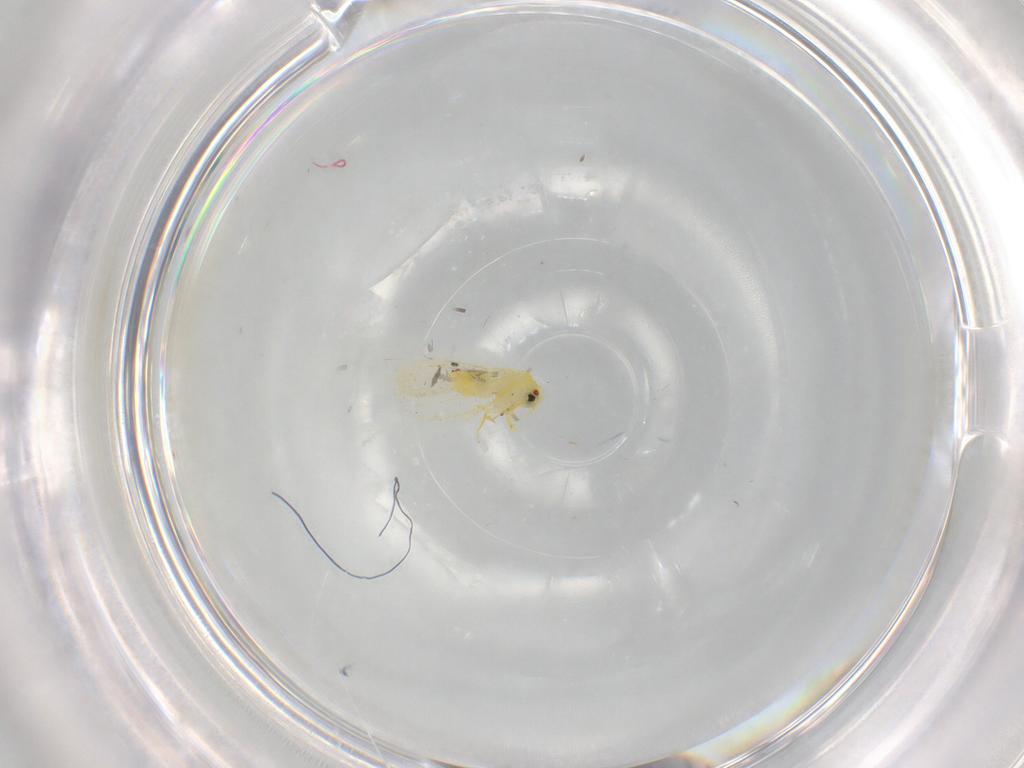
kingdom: Animalia
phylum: Arthropoda
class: Insecta
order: Hemiptera
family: Aleyrodidae
